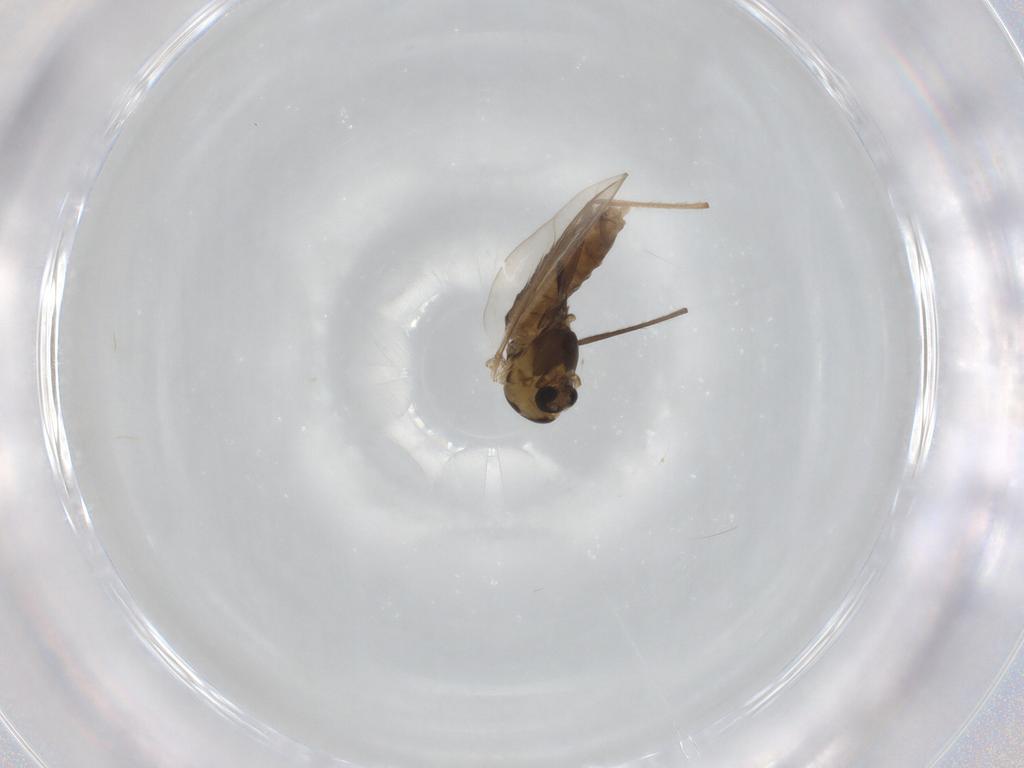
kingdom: Animalia
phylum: Arthropoda
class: Insecta
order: Diptera
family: Chironomidae
